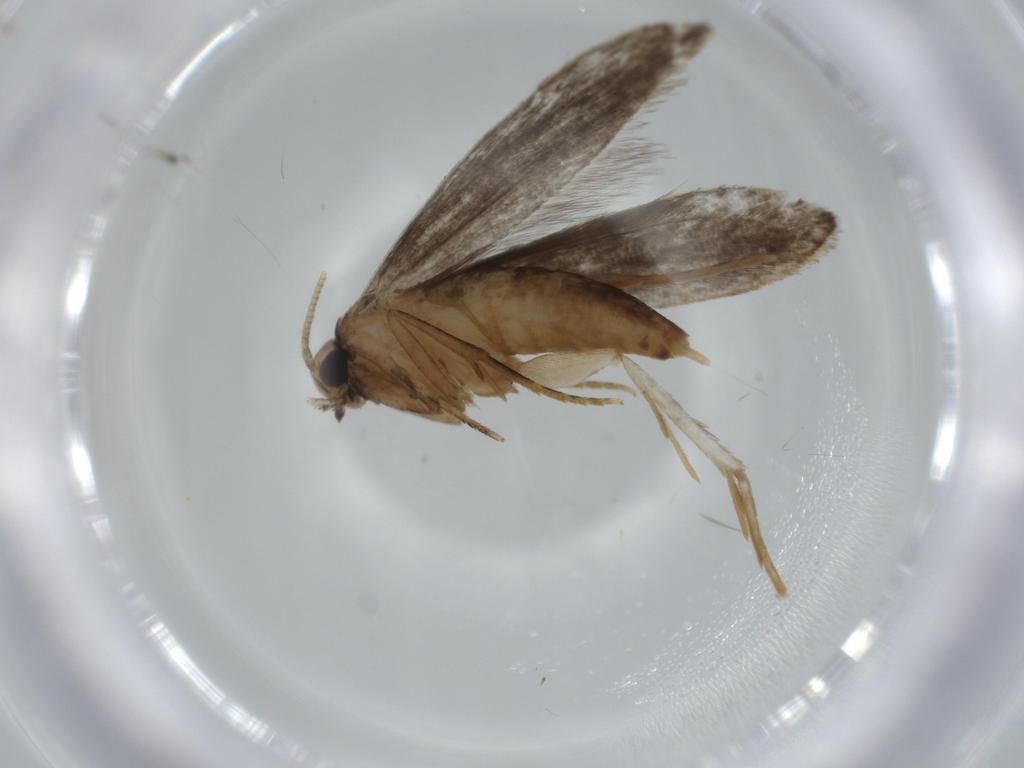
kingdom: Animalia
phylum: Arthropoda
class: Insecta
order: Lepidoptera
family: Tineidae
